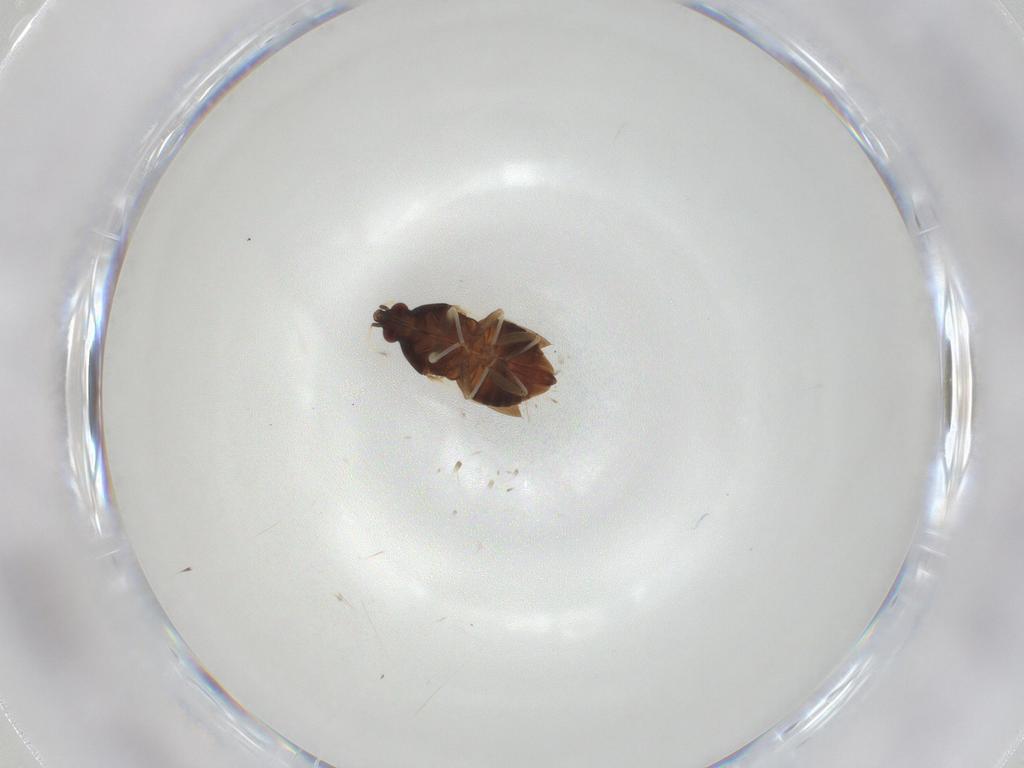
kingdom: Animalia
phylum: Arthropoda
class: Insecta
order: Hemiptera
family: Anthocoridae
